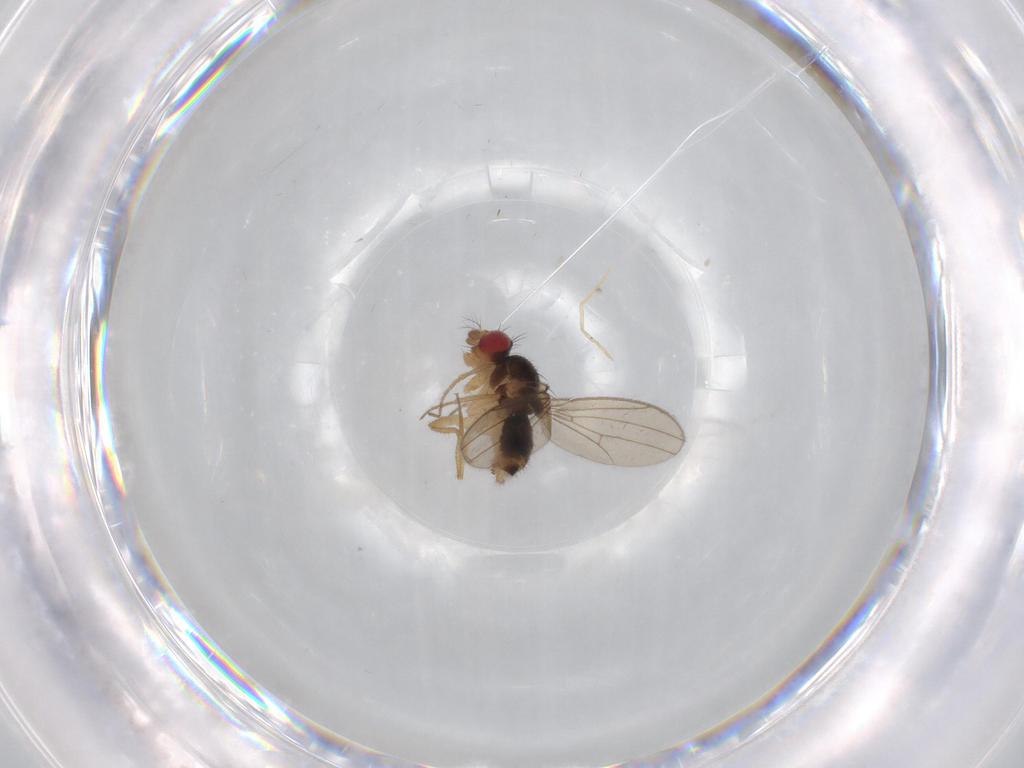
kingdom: Animalia
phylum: Arthropoda
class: Insecta
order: Diptera
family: Drosophilidae
